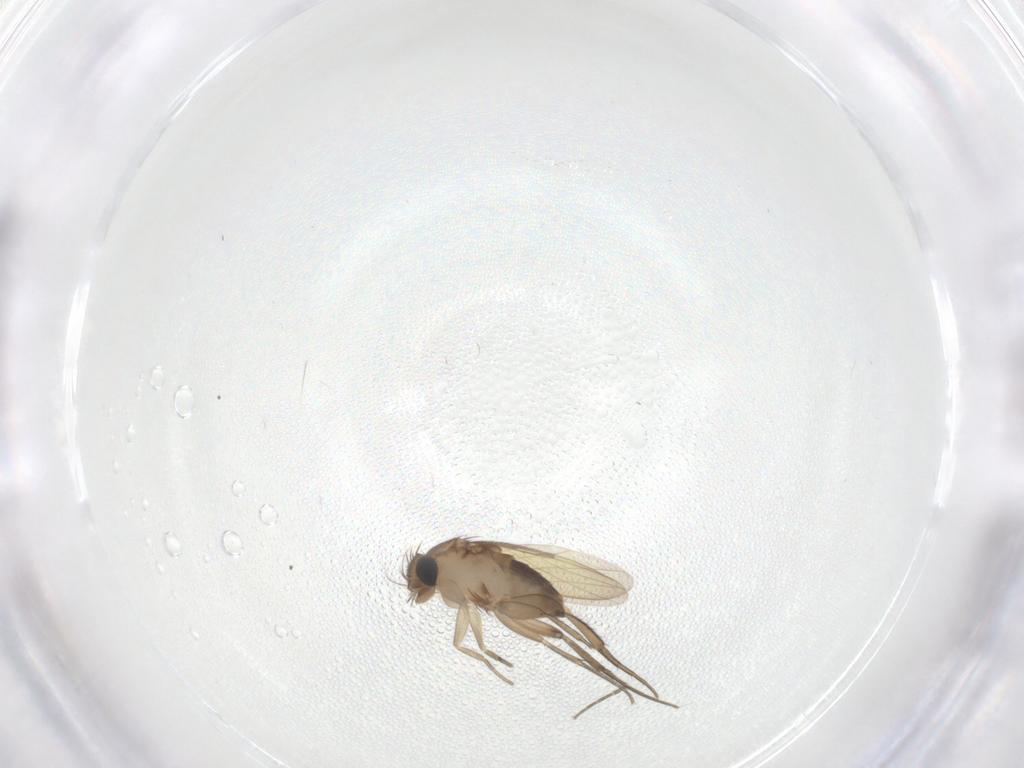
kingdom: Animalia
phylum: Arthropoda
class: Insecta
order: Diptera
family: Phoridae
